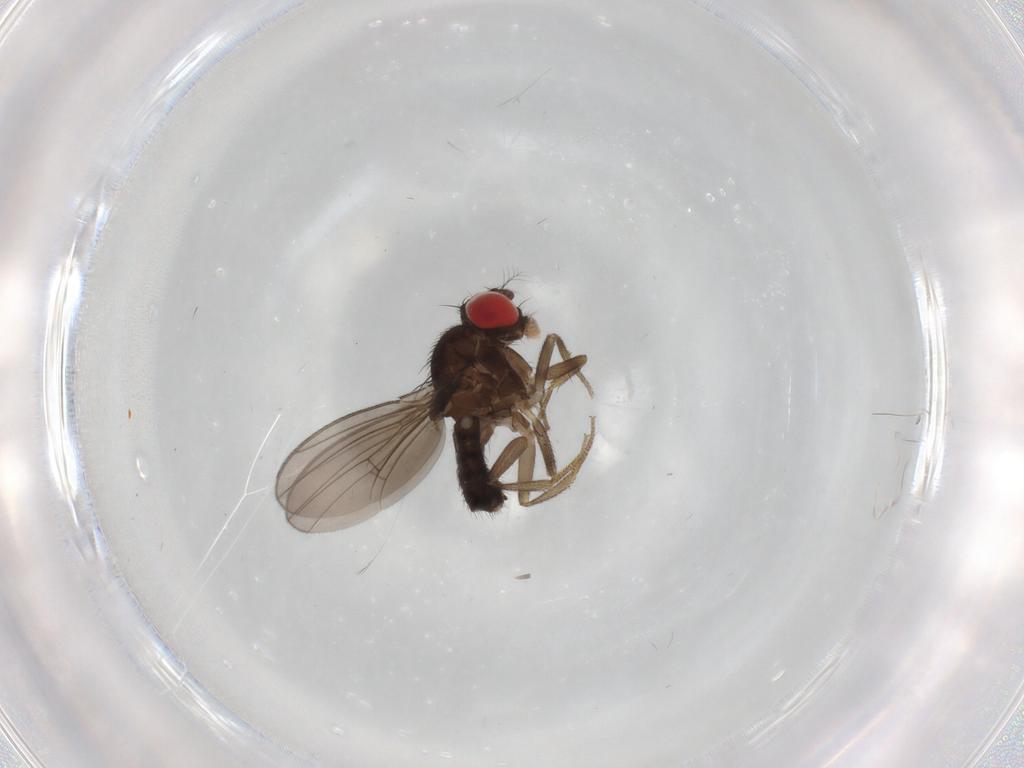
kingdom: Animalia
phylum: Arthropoda
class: Insecta
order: Diptera
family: Drosophilidae
